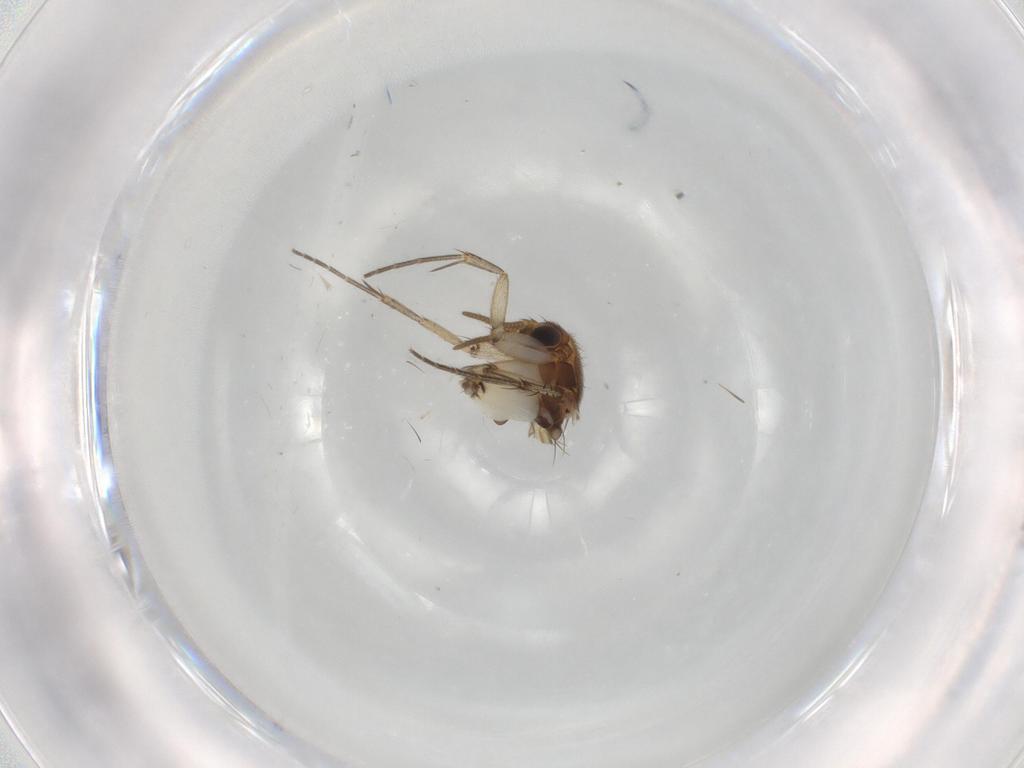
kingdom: Animalia
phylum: Arthropoda
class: Insecta
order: Diptera
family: Mycetophilidae
